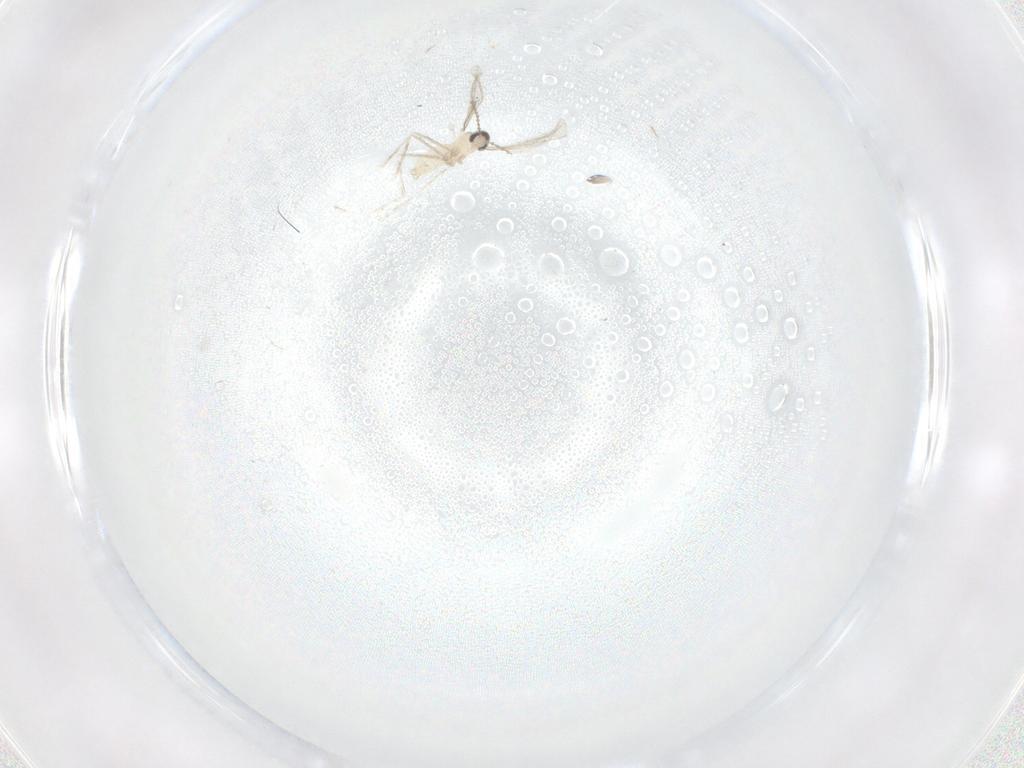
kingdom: Animalia
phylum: Arthropoda
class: Insecta
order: Diptera
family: Cecidomyiidae
